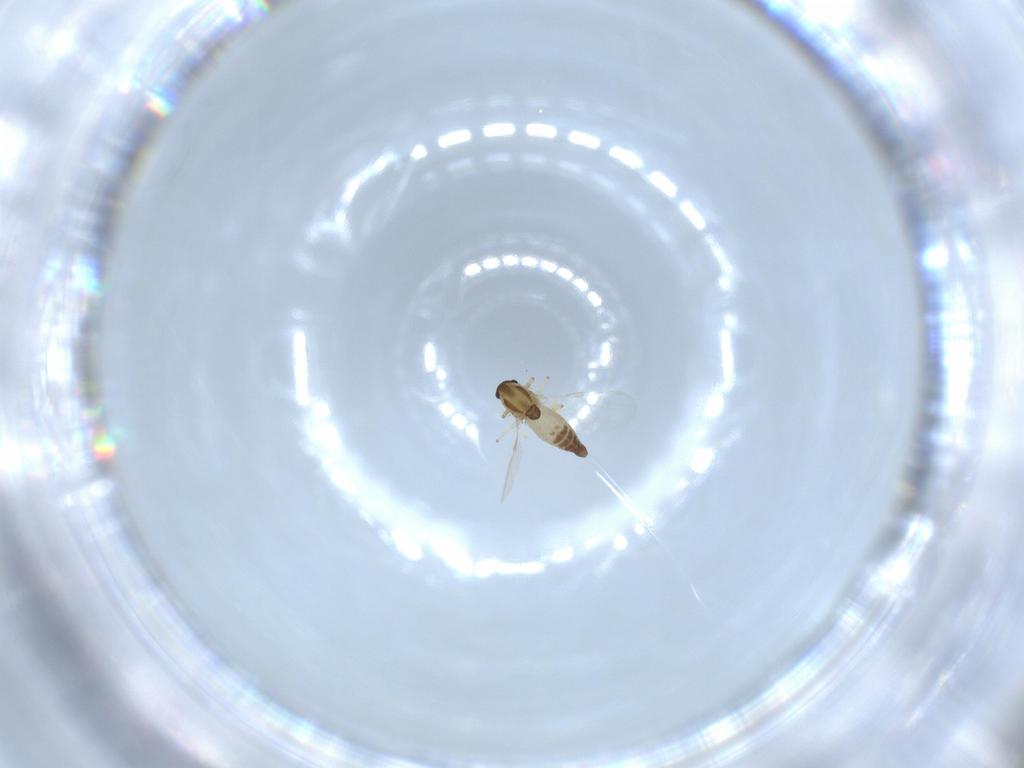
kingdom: Animalia
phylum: Arthropoda
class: Insecta
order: Diptera
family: Chironomidae
